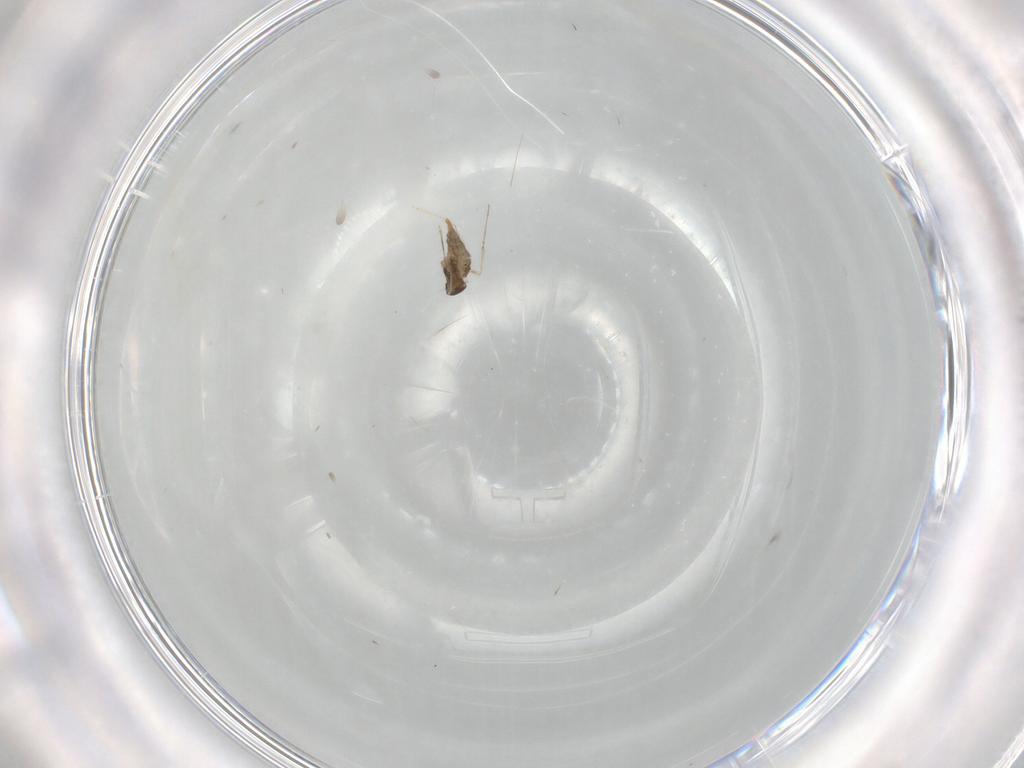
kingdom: Animalia
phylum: Arthropoda
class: Insecta
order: Diptera
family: Cecidomyiidae
